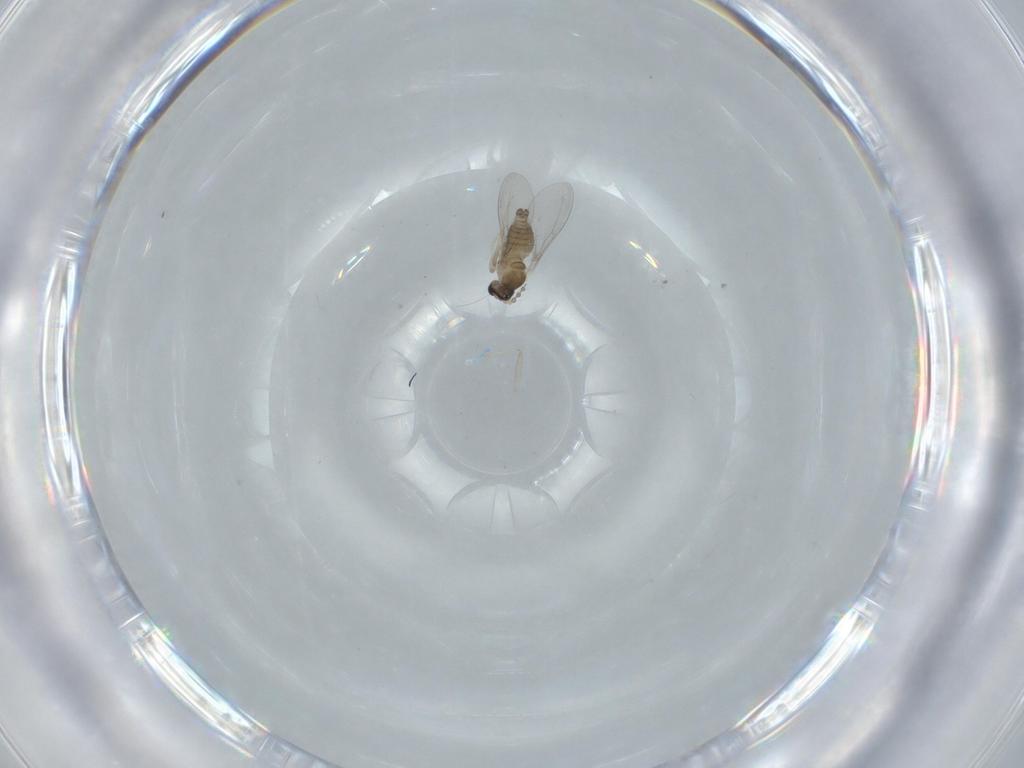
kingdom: Animalia
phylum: Arthropoda
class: Insecta
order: Diptera
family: Cecidomyiidae
